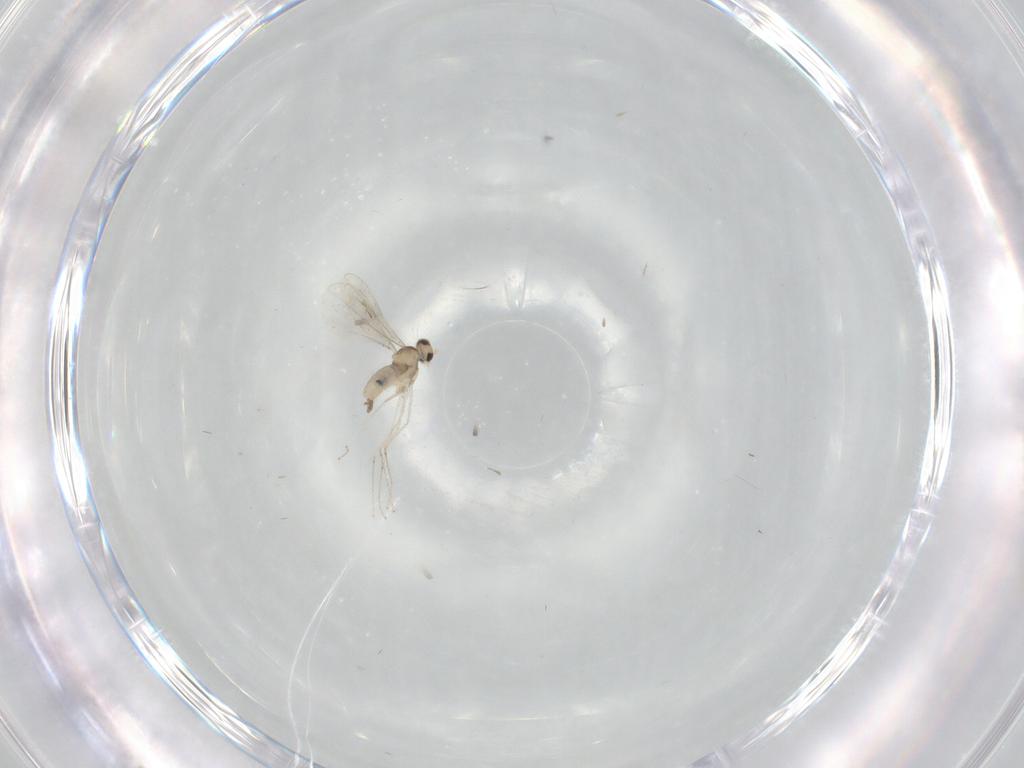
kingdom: Animalia
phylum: Arthropoda
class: Insecta
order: Diptera
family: Cecidomyiidae
